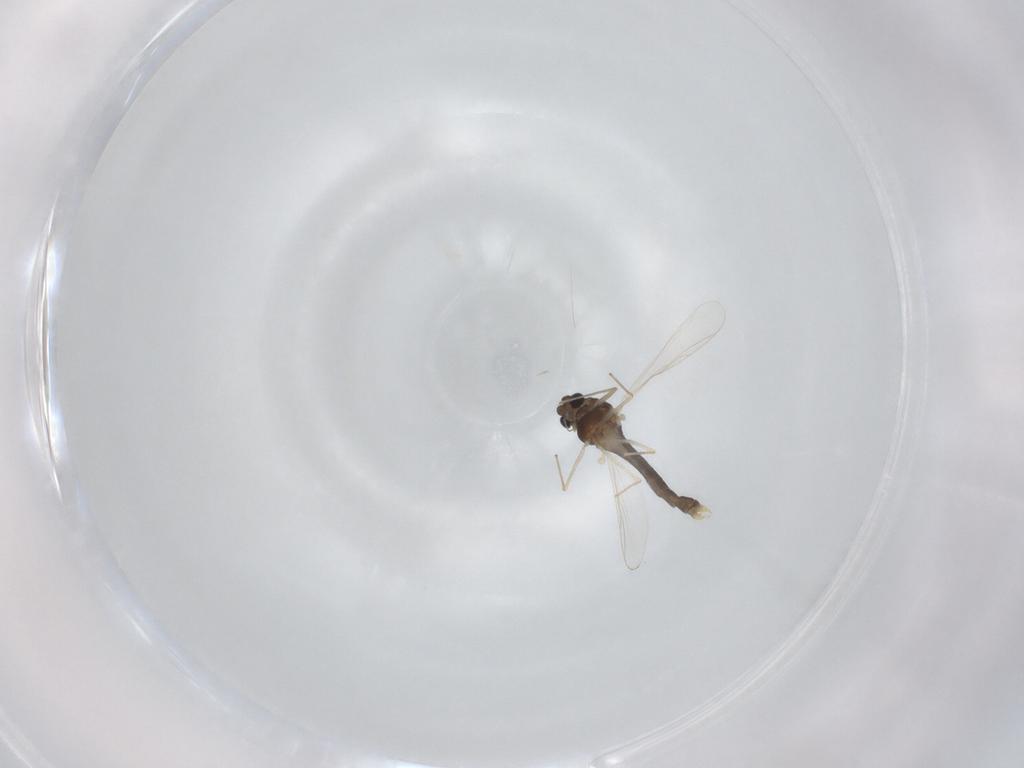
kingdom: Animalia
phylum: Arthropoda
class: Insecta
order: Diptera
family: Chironomidae
